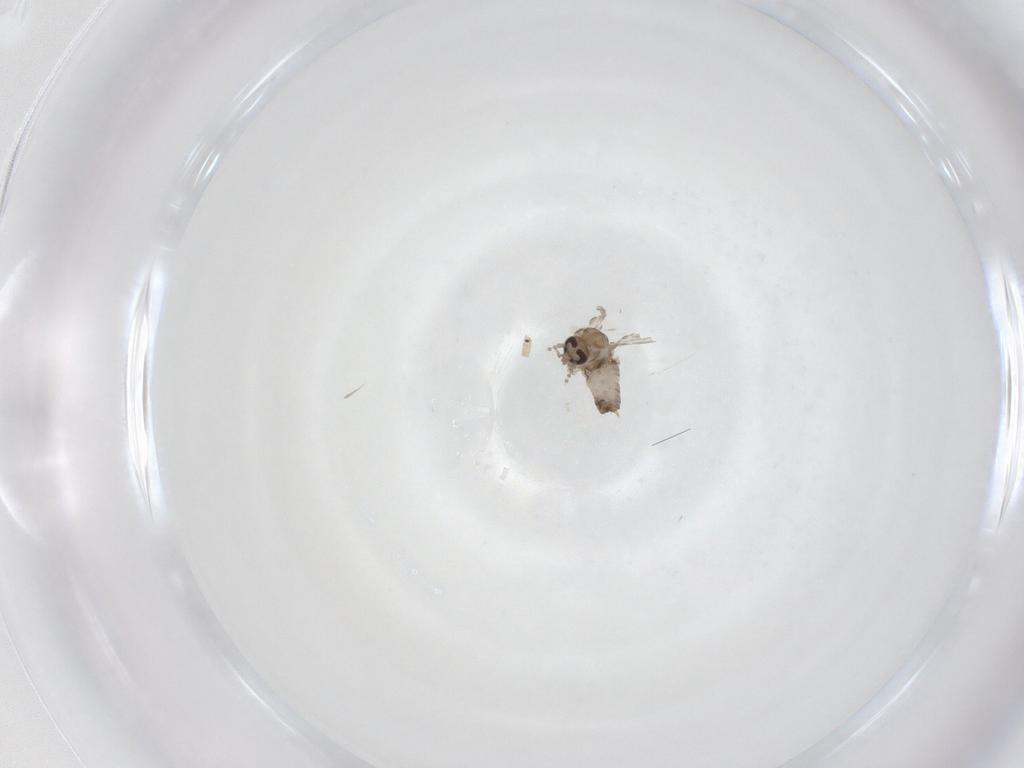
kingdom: Animalia
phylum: Arthropoda
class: Insecta
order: Diptera
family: Psychodidae
